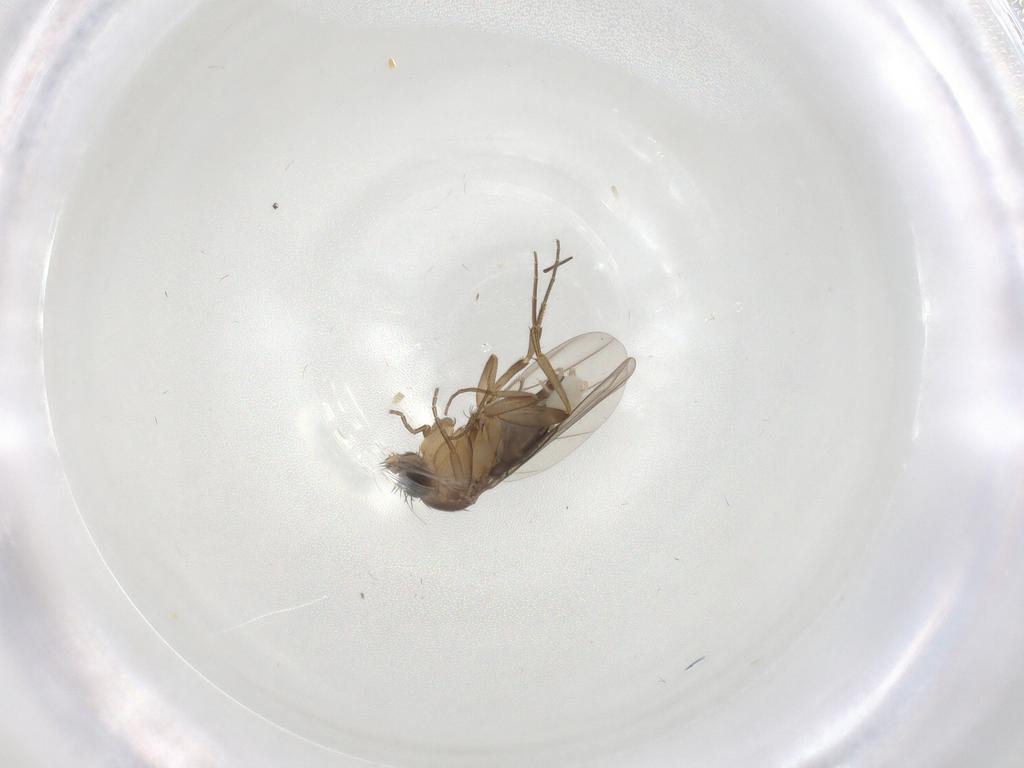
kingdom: Animalia
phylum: Arthropoda
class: Insecta
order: Diptera
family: Phoridae
